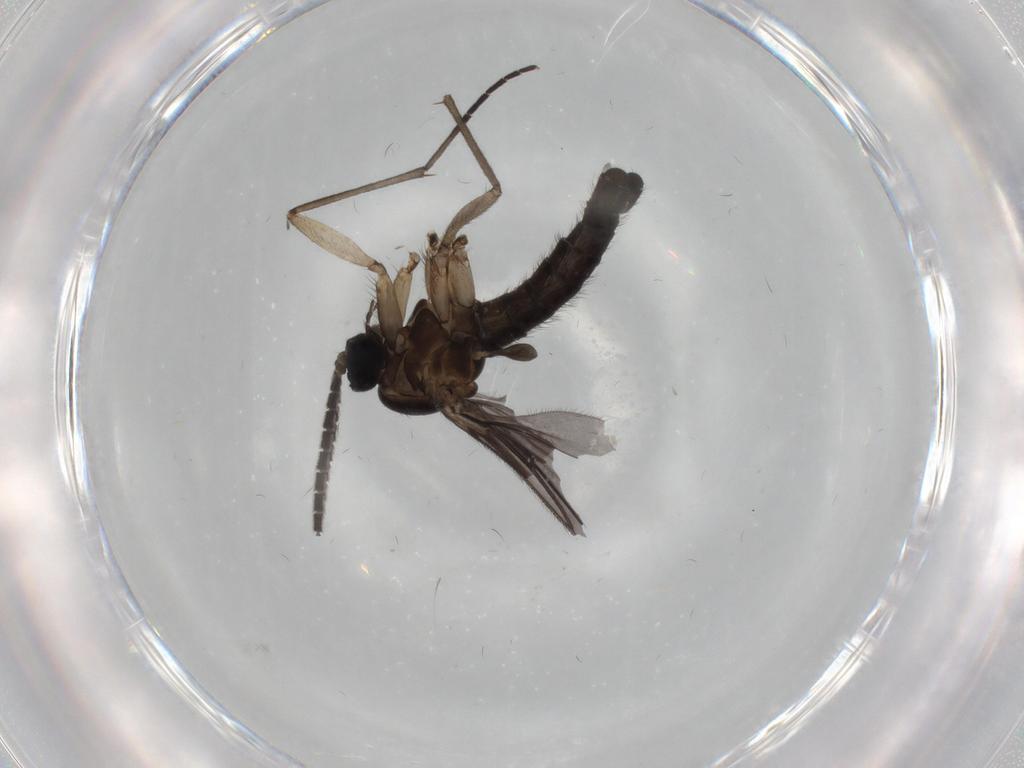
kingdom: Animalia
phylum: Arthropoda
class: Insecta
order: Diptera
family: Sciaridae
